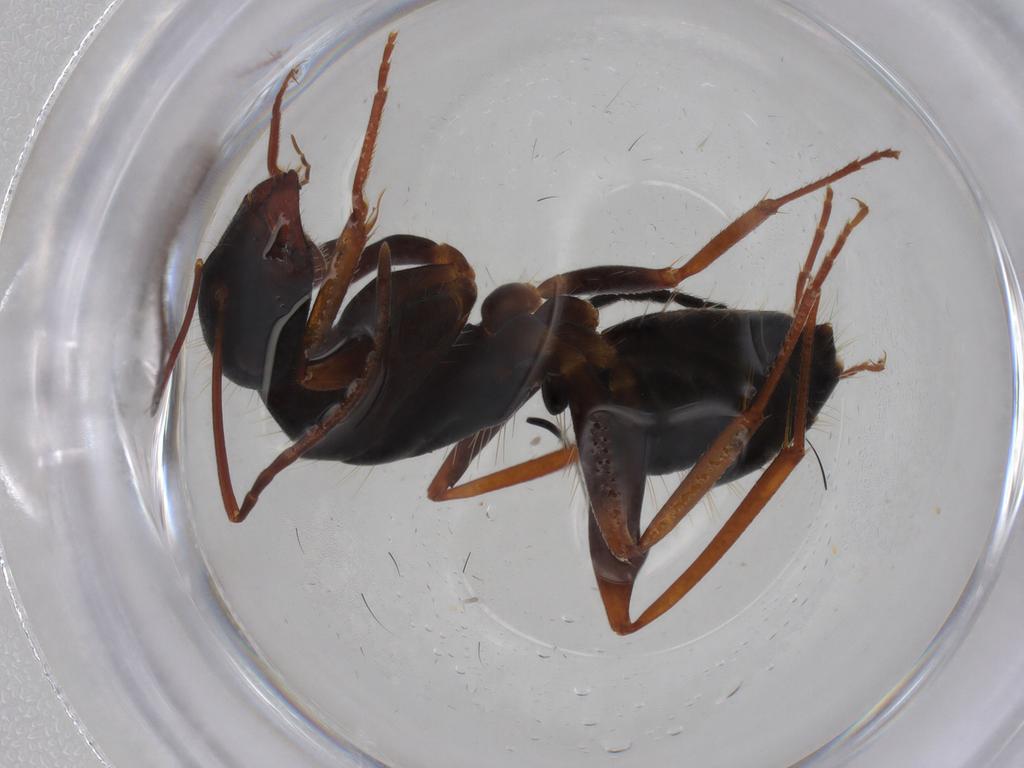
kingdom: Animalia
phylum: Arthropoda
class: Insecta
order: Hymenoptera
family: Formicidae
